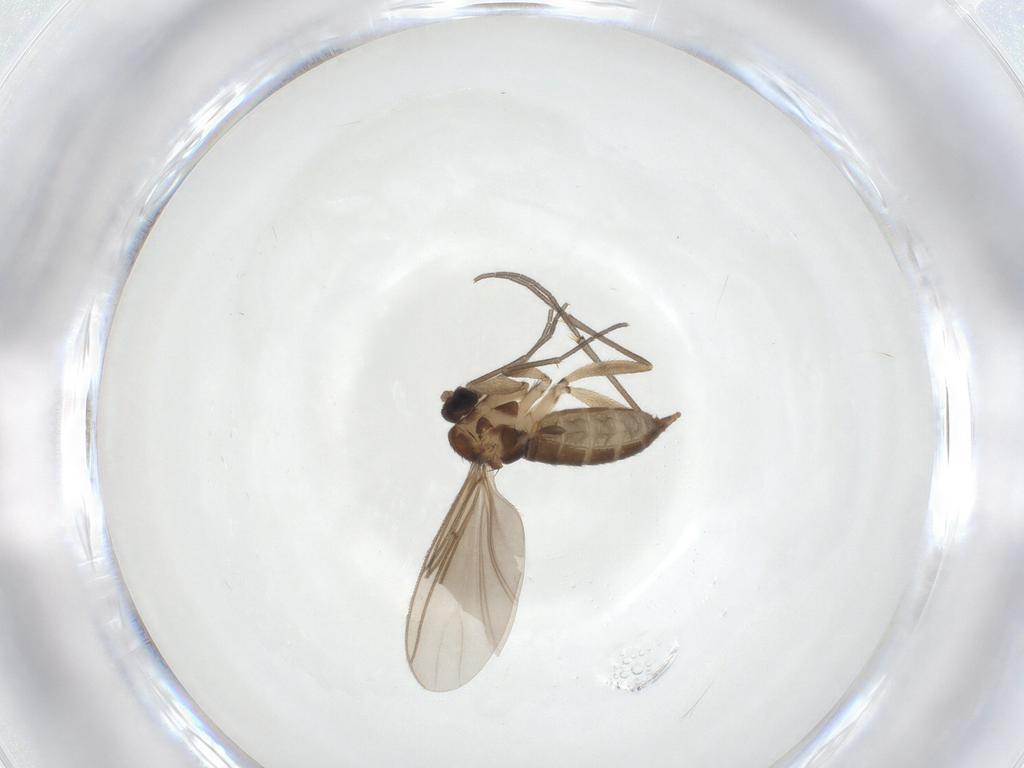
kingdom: Animalia
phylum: Arthropoda
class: Insecta
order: Diptera
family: Sciaridae
